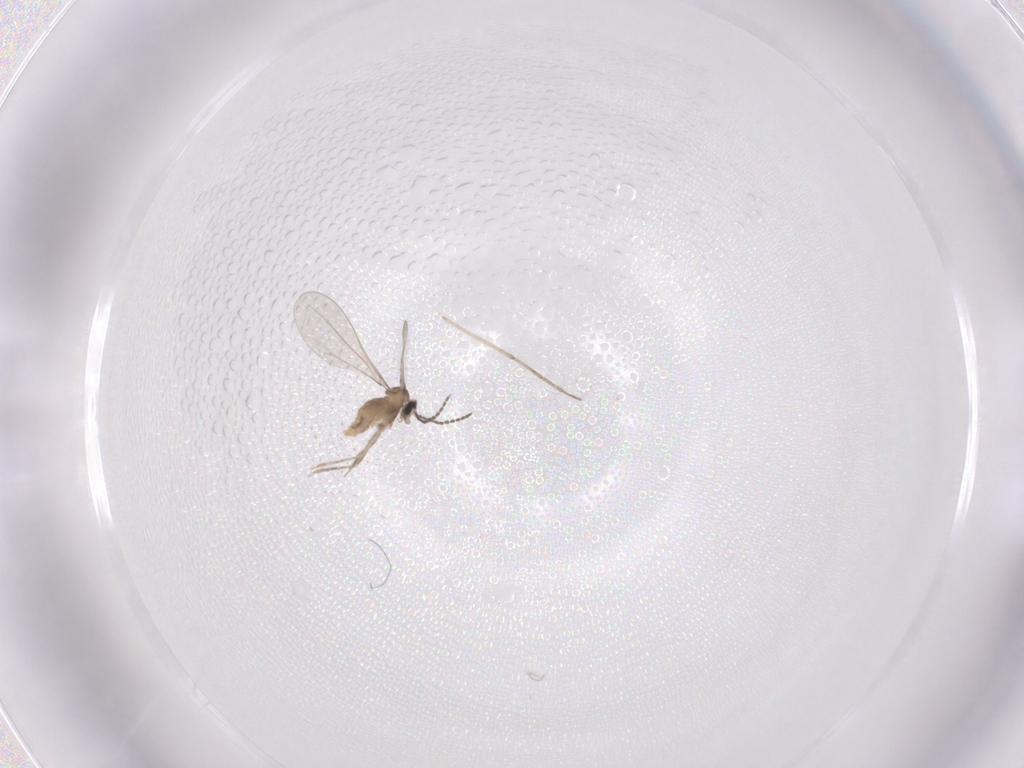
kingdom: Animalia
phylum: Arthropoda
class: Insecta
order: Diptera
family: Cecidomyiidae
